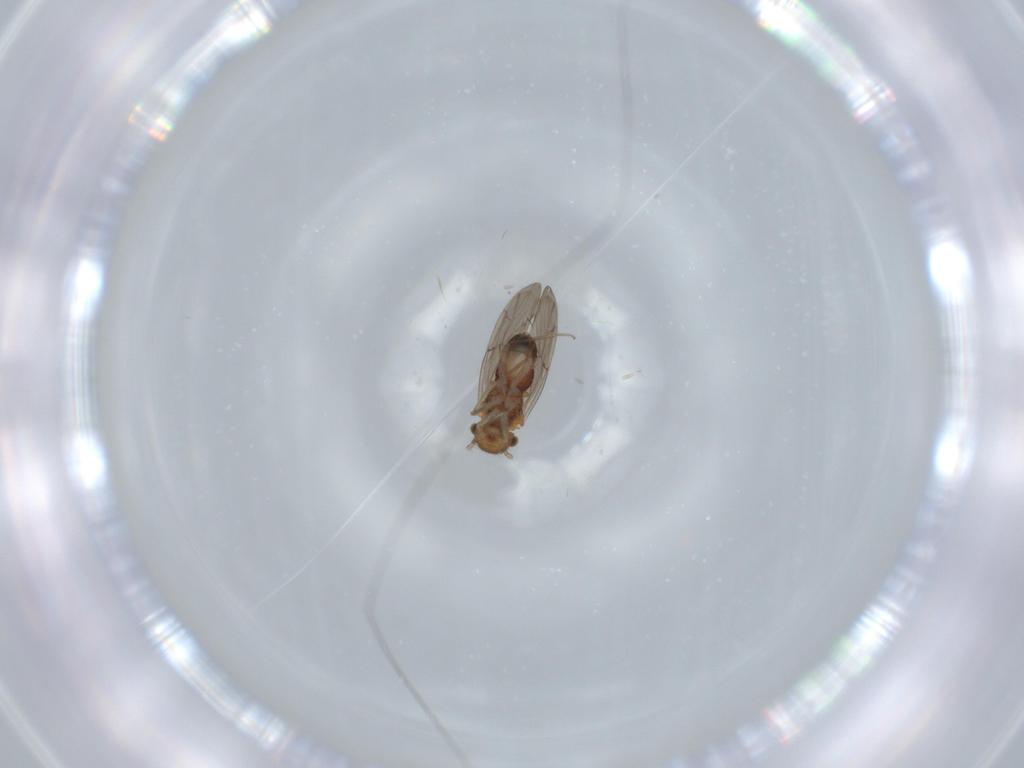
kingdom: Animalia
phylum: Arthropoda
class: Insecta
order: Psocodea
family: Ectopsocidae
